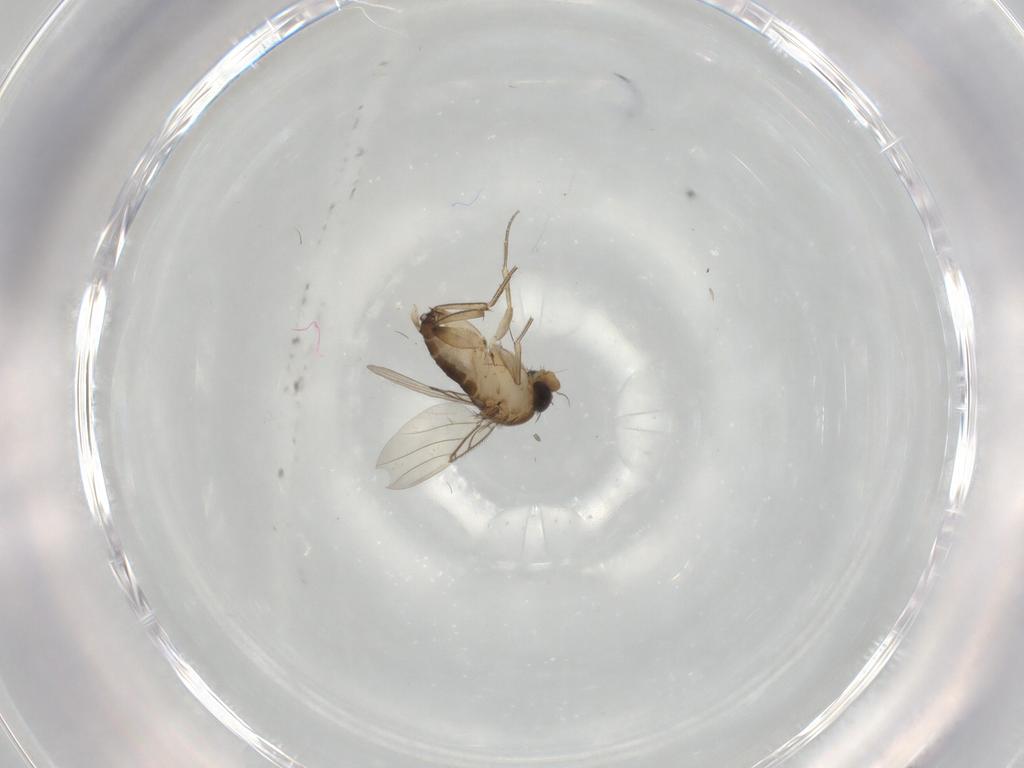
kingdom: Animalia
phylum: Arthropoda
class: Insecta
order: Diptera
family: Phoridae
